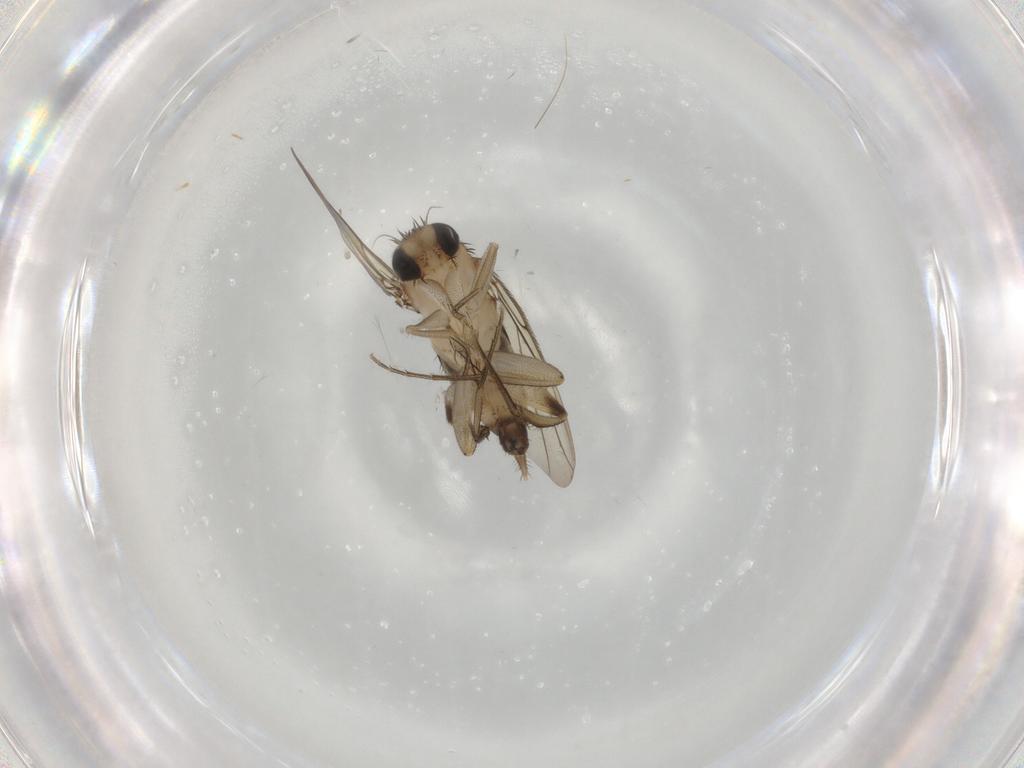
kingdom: Animalia
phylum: Arthropoda
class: Insecta
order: Diptera
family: Phoridae
